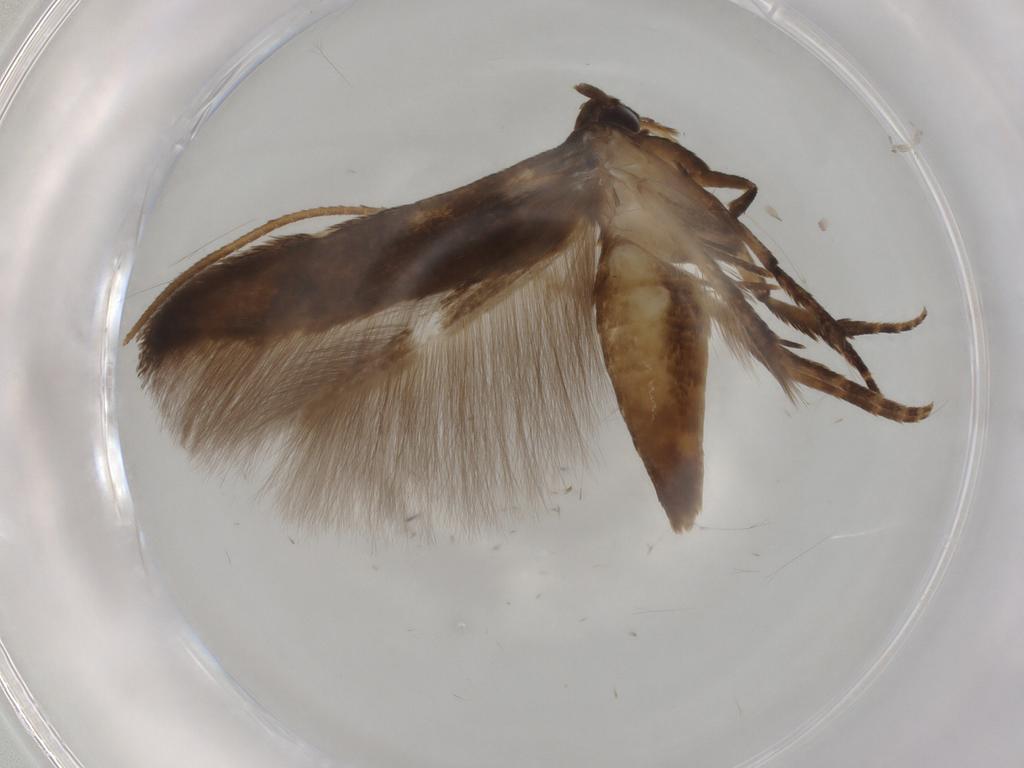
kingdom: Animalia
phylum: Arthropoda
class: Insecta
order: Lepidoptera
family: Cosmopterigidae
